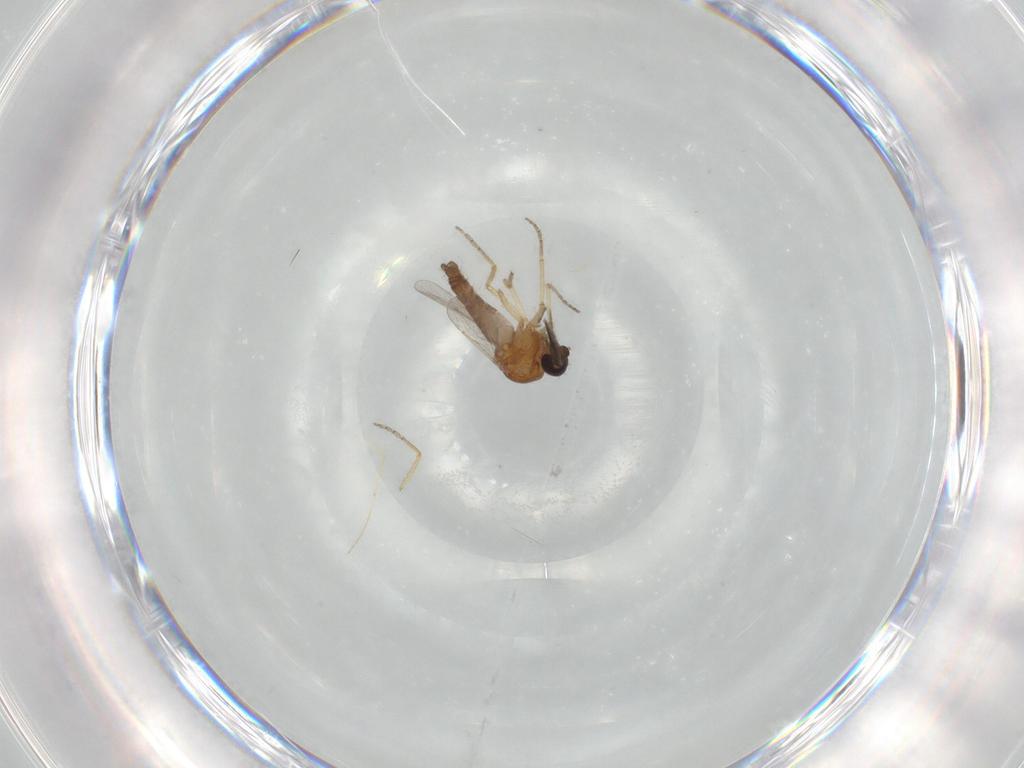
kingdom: Animalia
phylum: Arthropoda
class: Insecta
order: Diptera
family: Ceratopogonidae
